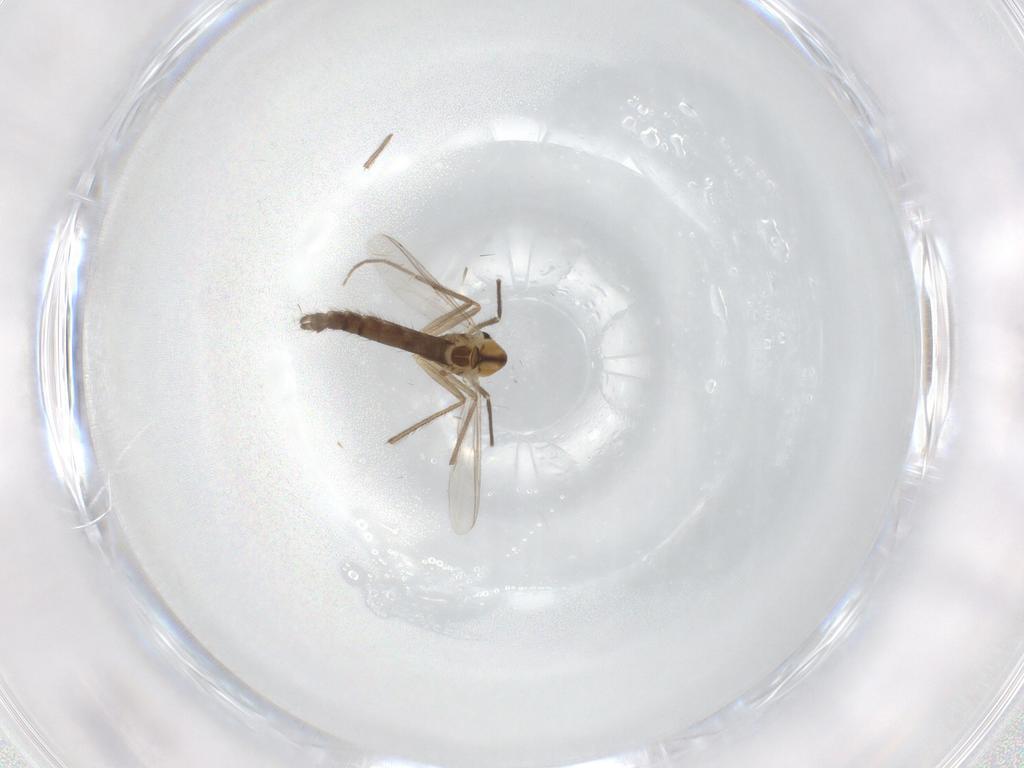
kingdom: Animalia
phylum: Arthropoda
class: Insecta
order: Diptera
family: Chironomidae
